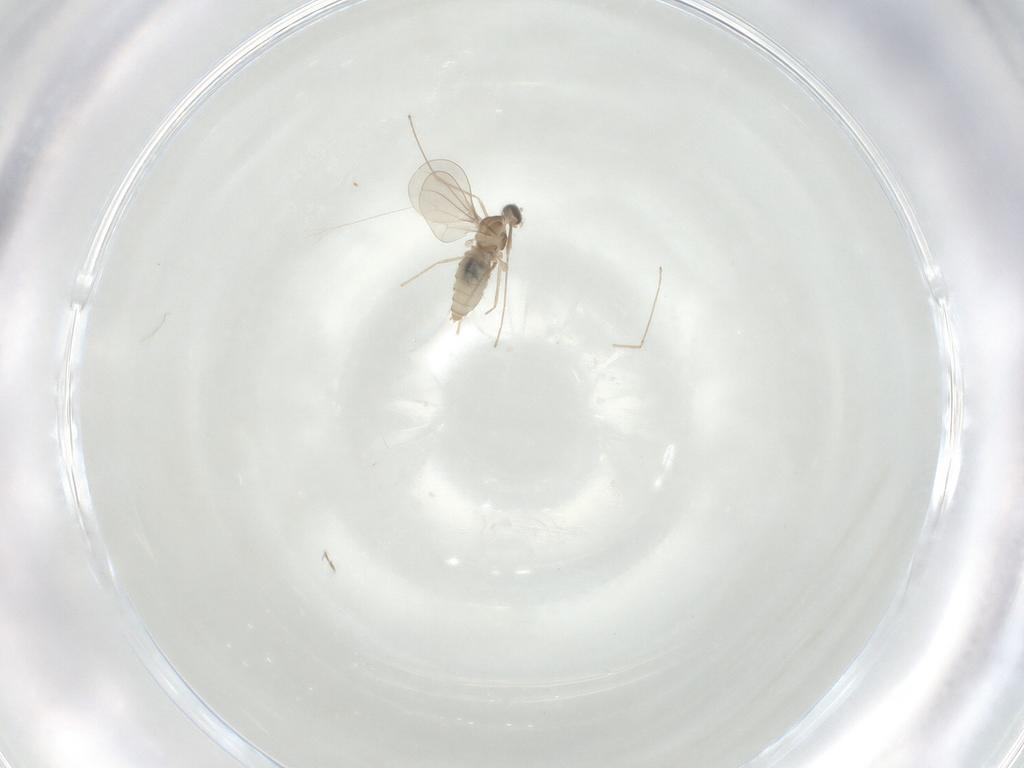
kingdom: Animalia
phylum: Arthropoda
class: Insecta
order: Diptera
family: Cecidomyiidae
